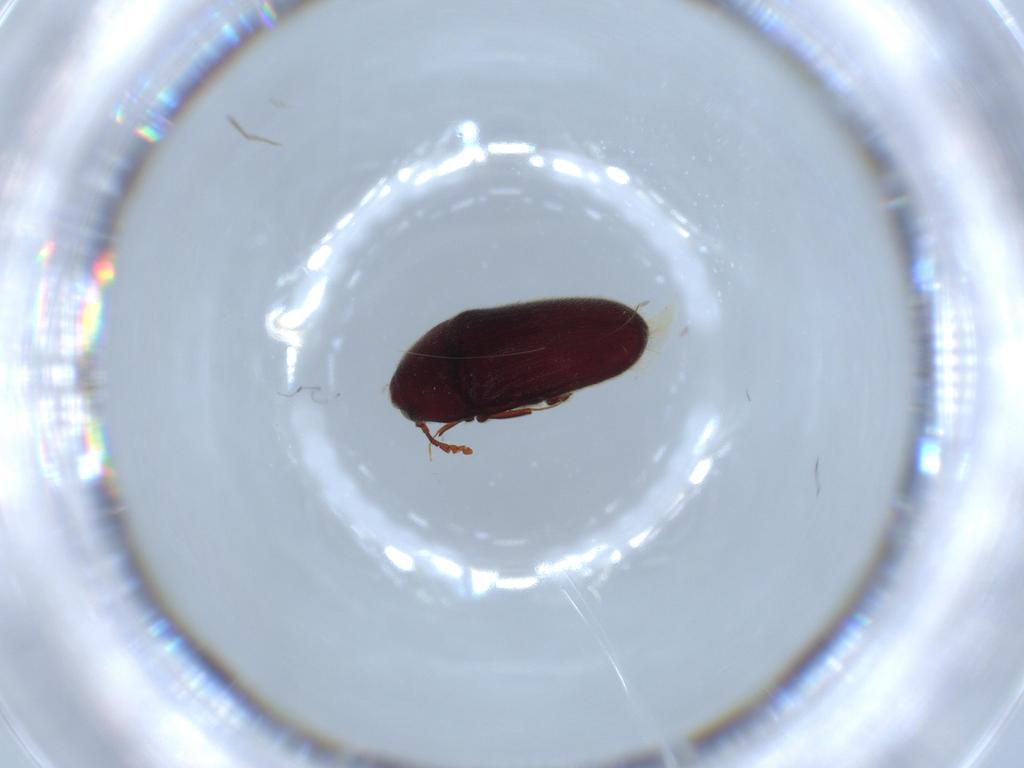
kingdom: Animalia
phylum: Arthropoda
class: Insecta
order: Coleoptera
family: Throscidae
